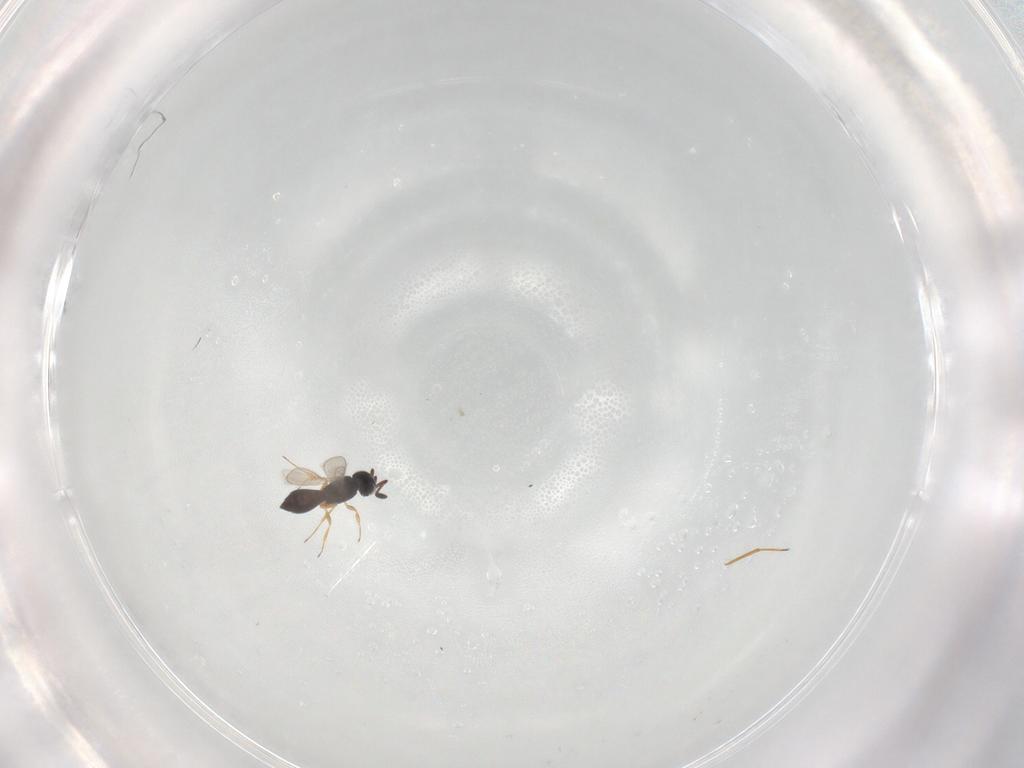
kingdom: Animalia
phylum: Arthropoda
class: Insecta
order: Hymenoptera
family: Scelionidae
